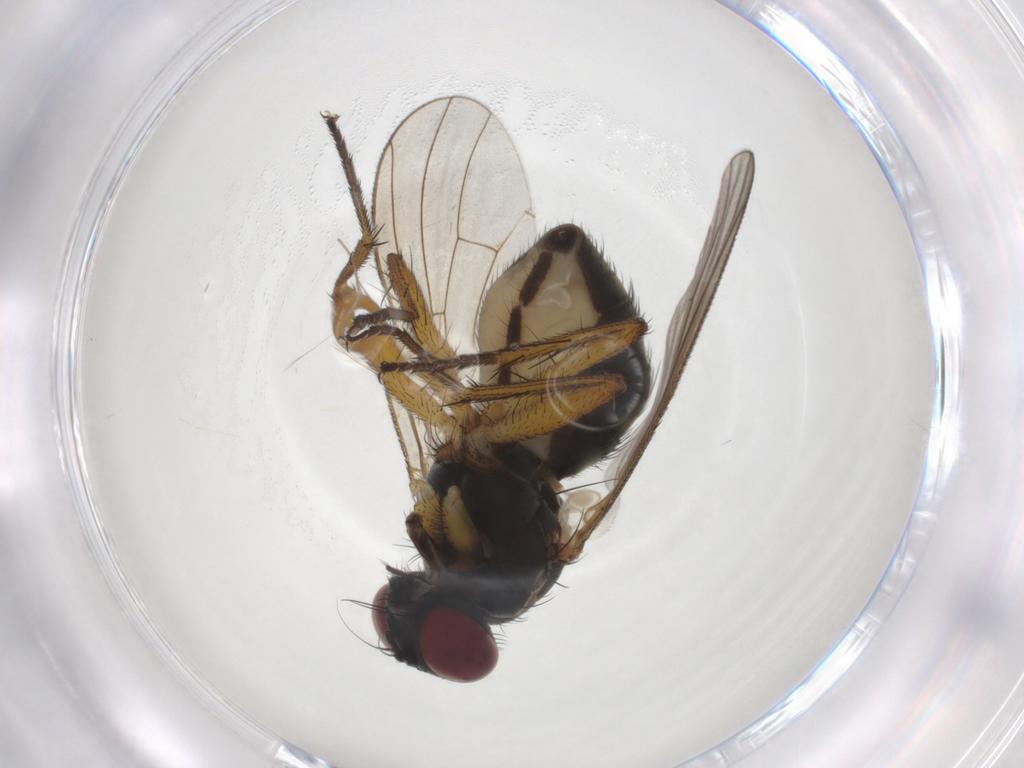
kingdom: Animalia
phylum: Arthropoda
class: Insecta
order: Diptera
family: Muscidae
